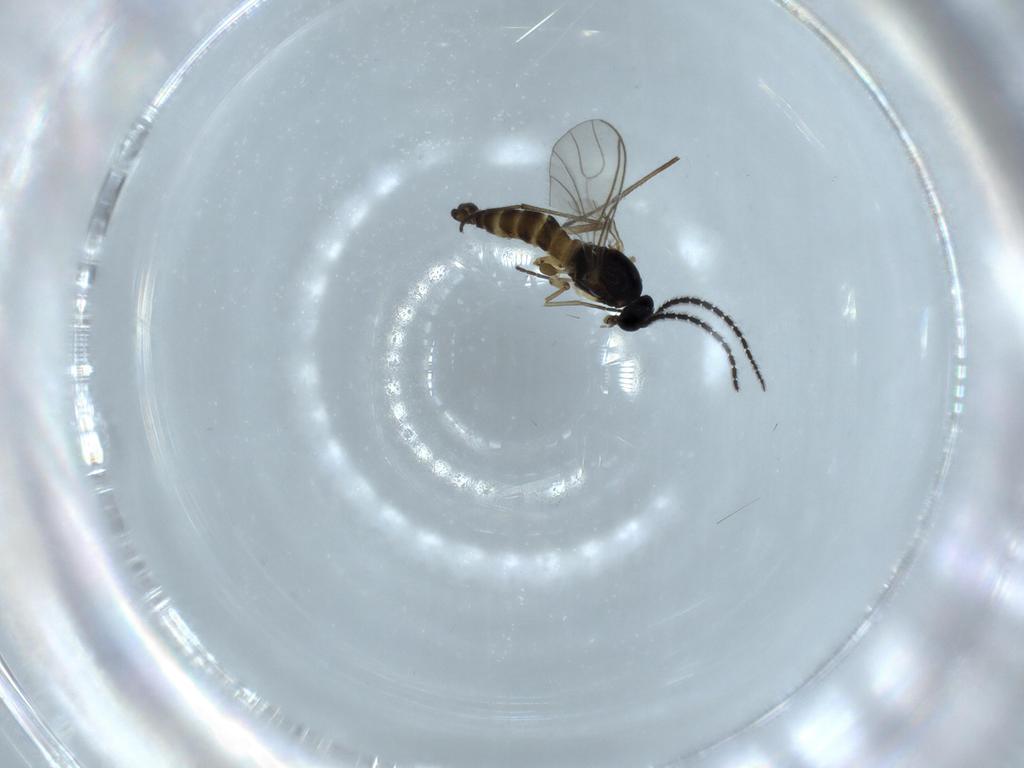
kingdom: Animalia
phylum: Arthropoda
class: Insecta
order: Diptera
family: Sciaridae
